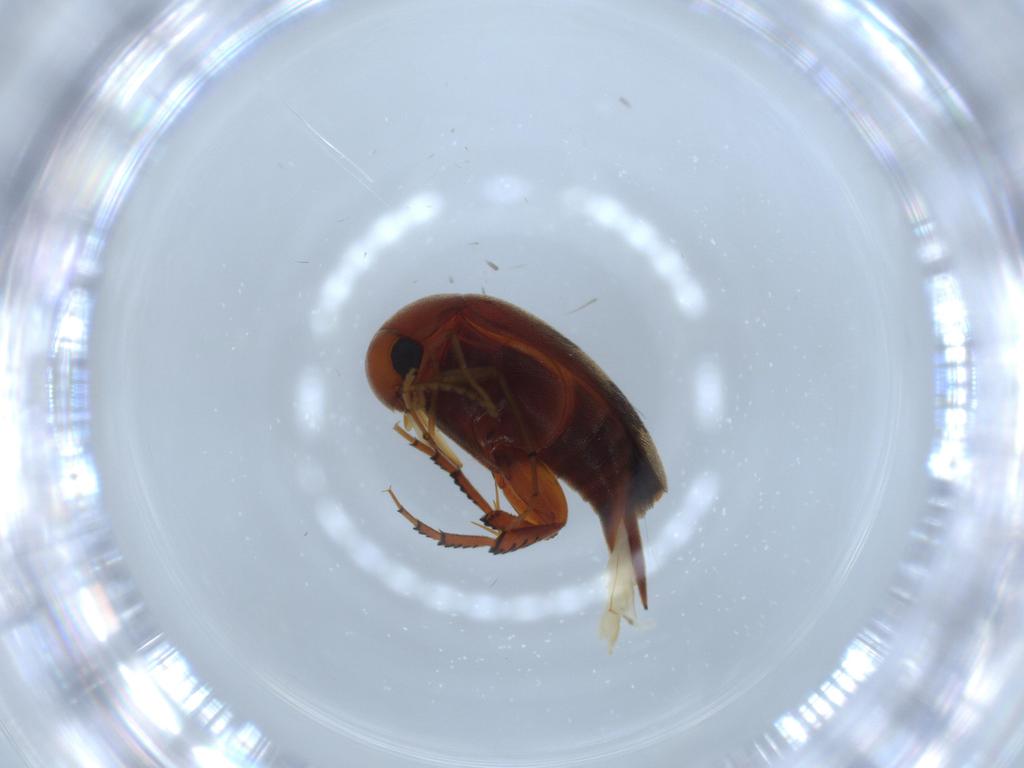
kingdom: Animalia
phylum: Arthropoda
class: Insecta
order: Coleoptera
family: Chrysomelidae
